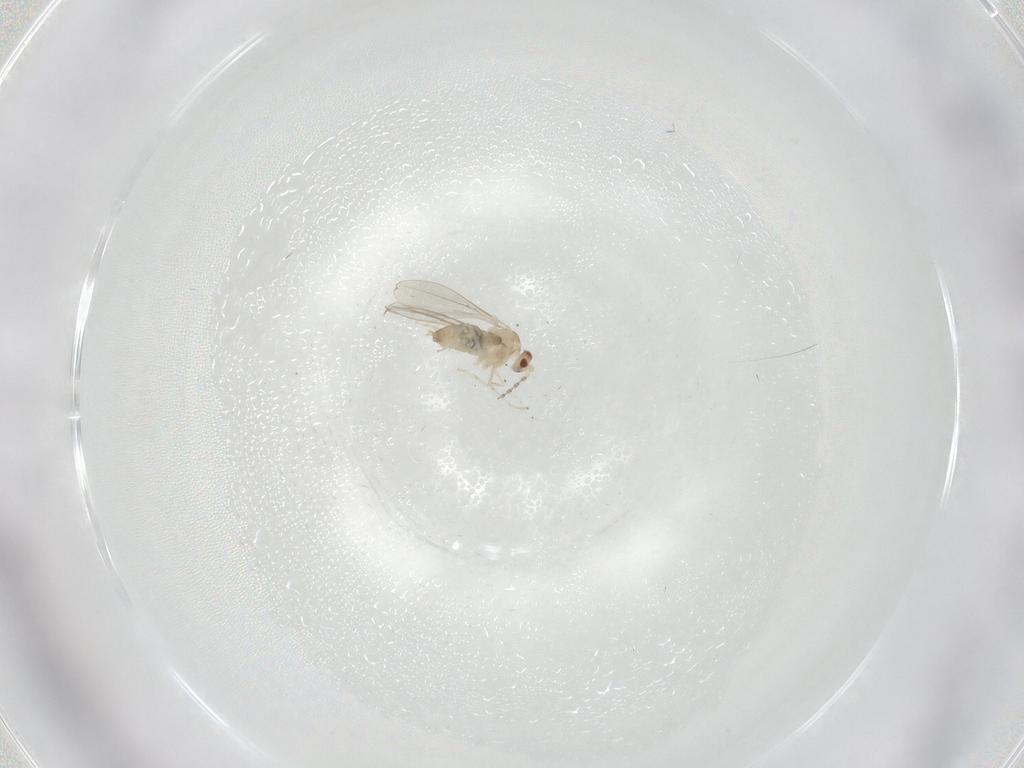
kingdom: Animalia
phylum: Arthropoda
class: Insecta
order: Diptera
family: Cecidomyiidae
